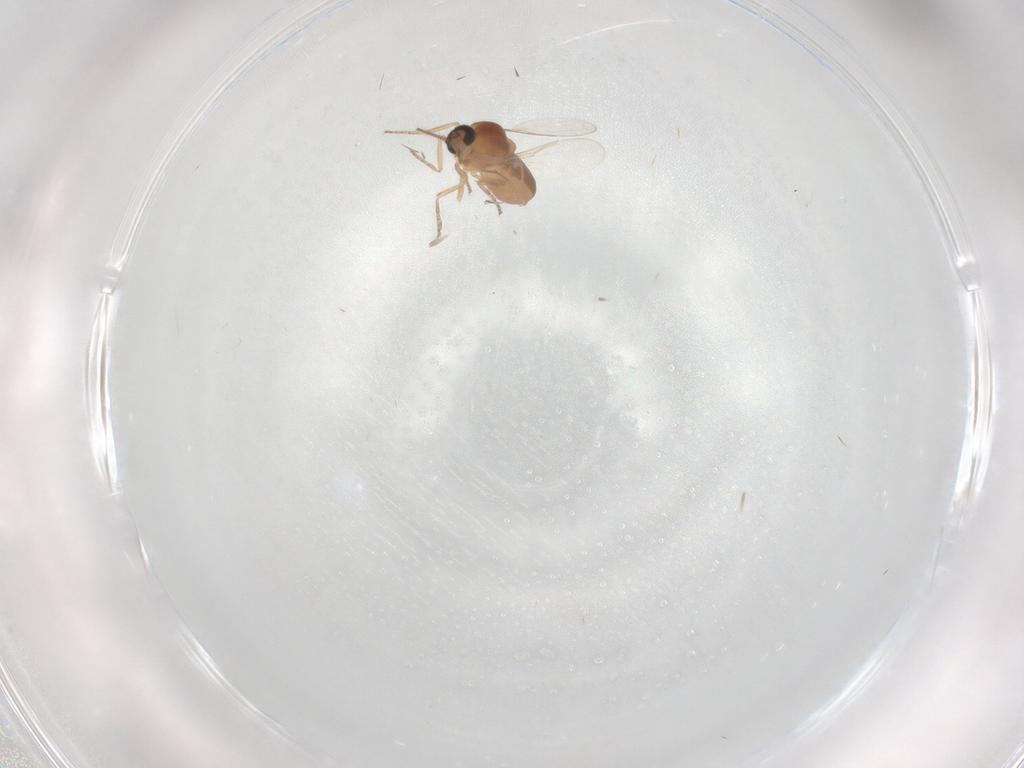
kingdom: Animalia
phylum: Arthropoda
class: Insecta
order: Diptera
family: Ceratopogonidae
